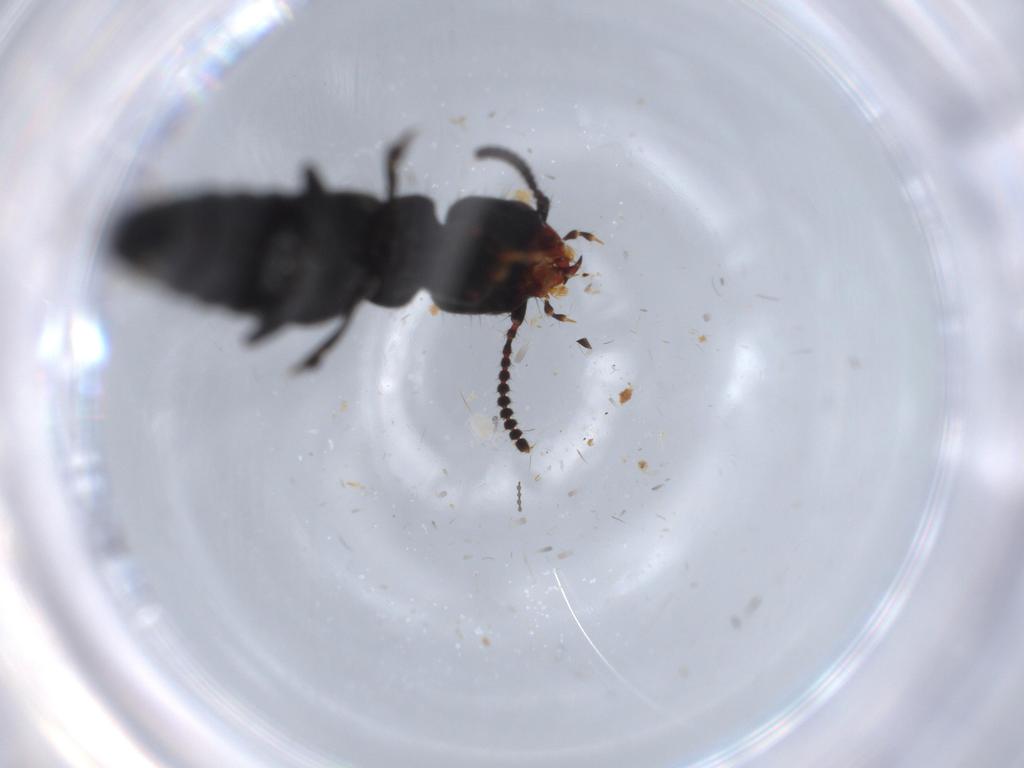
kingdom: Animalia
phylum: Arthropoda
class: Insecta
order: Coleoptera
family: Staphylinidae
